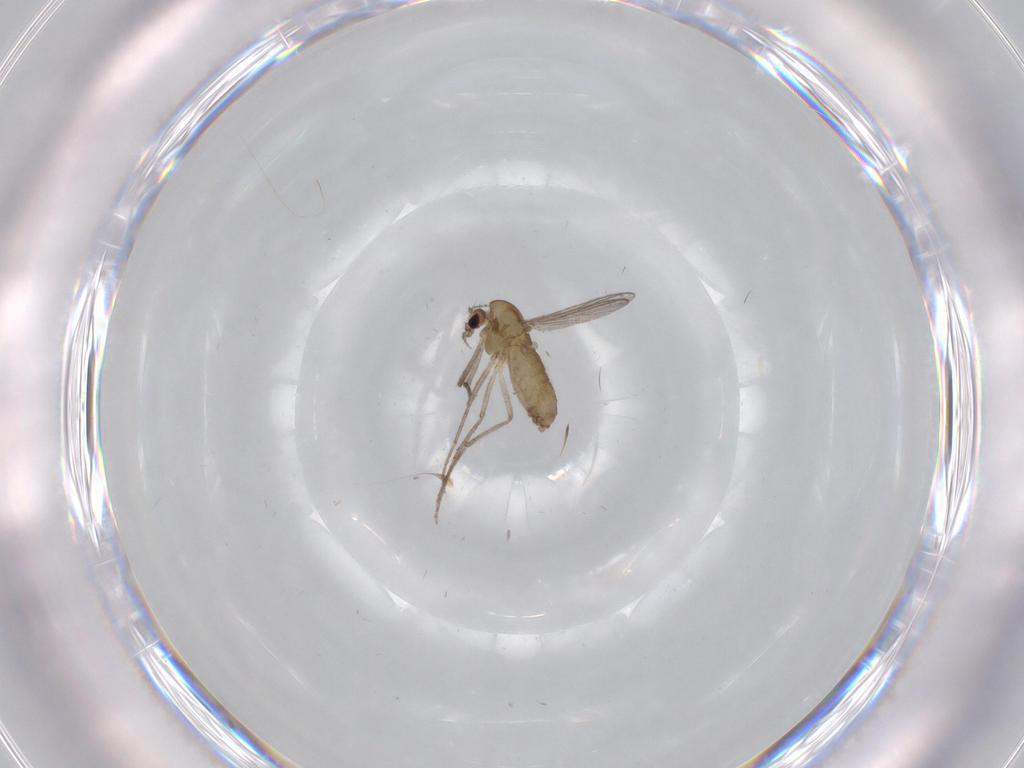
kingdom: Animalia
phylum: Arthropoda
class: Insecta
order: Diptera
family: Chironomidae
